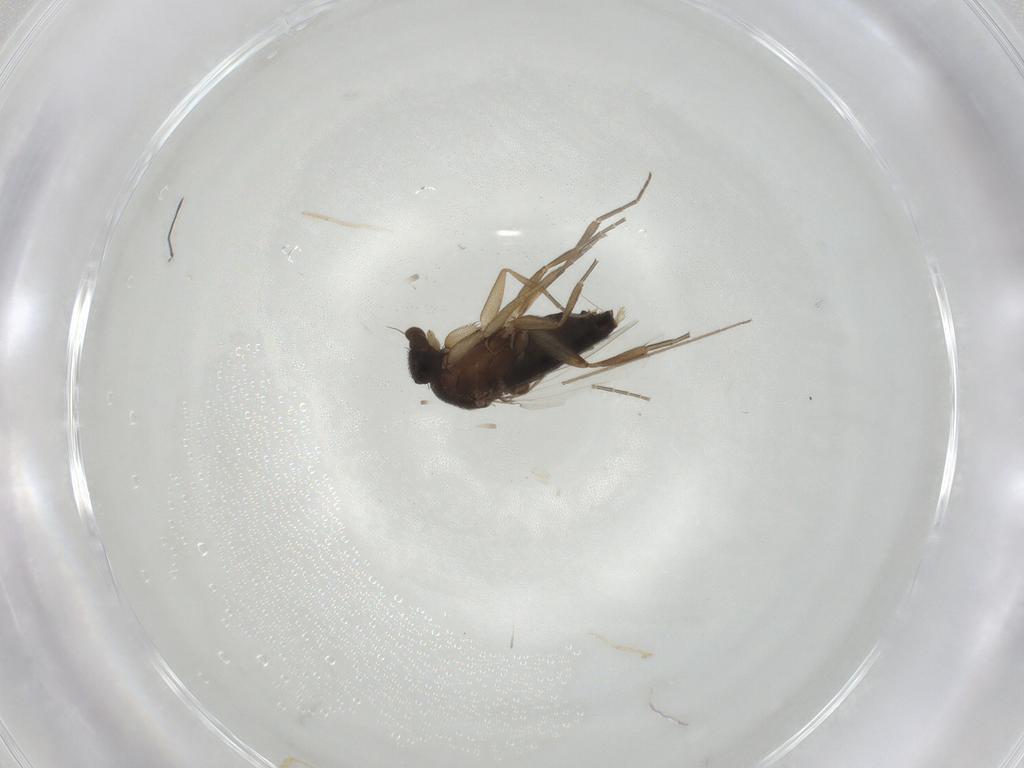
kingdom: Animalia
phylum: Arthropoda
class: Insecta
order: Diptera
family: Phoridae
